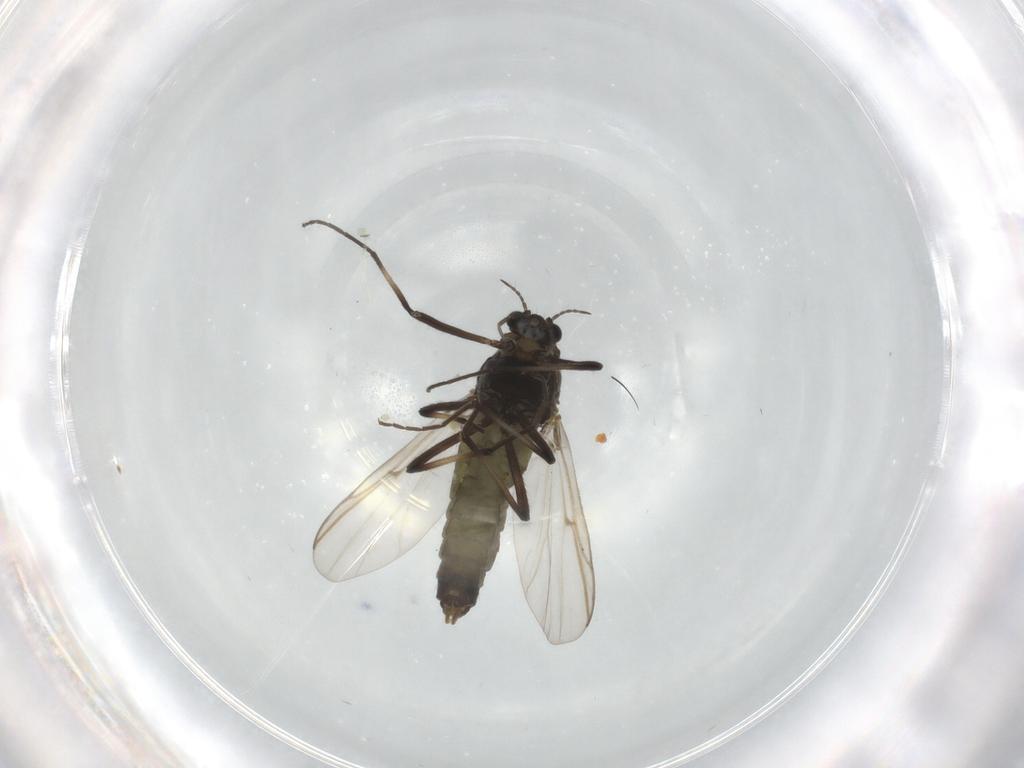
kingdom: Animalia
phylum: Arthropoda
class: Insecta
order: Diptera
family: Chironomidae
